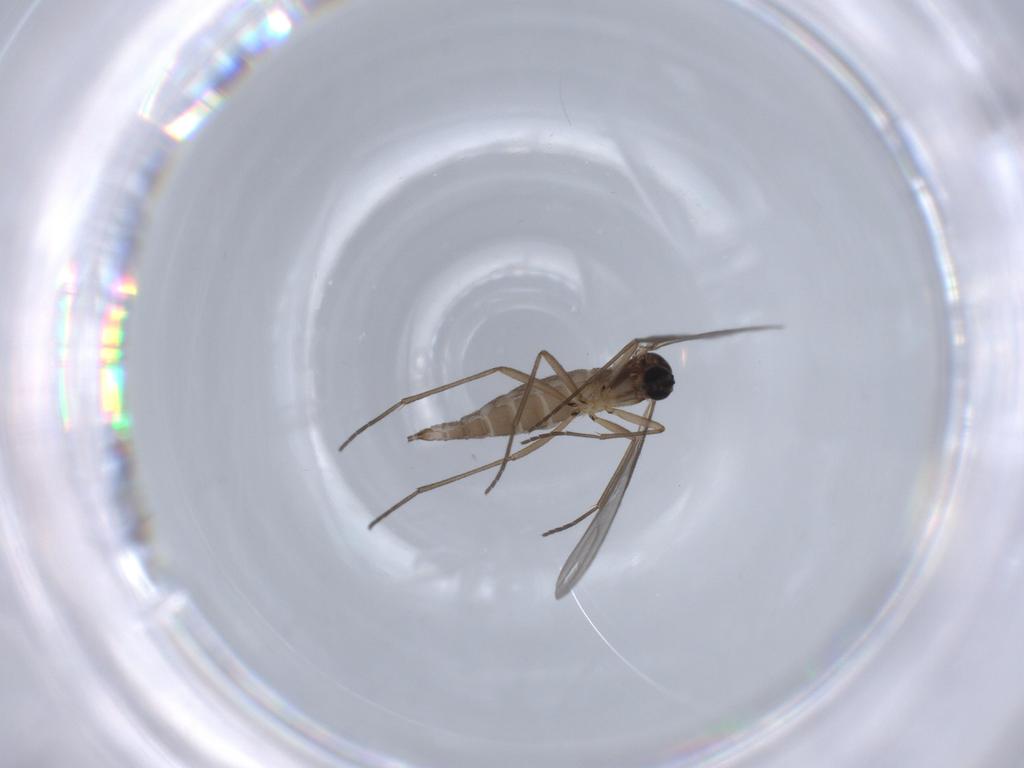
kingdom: Animalia
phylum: Arthropoda
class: Insecta
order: Diptera
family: Sciaridae
